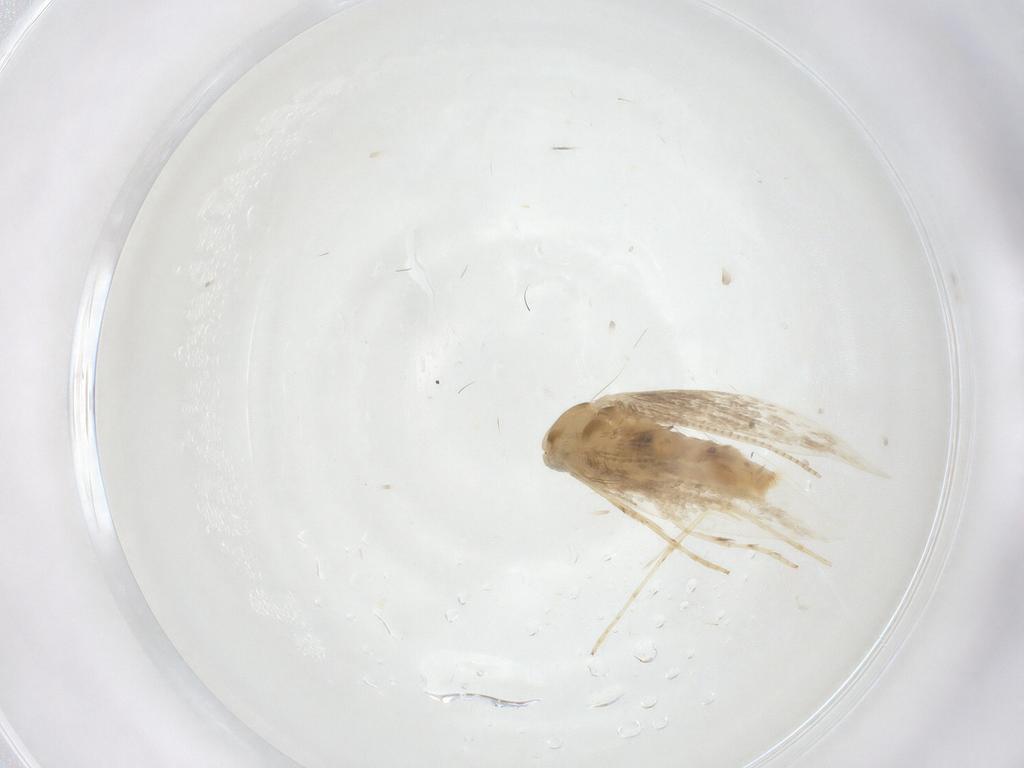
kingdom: Animalia
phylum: Arthropoda
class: Insecta
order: Lepidoptera
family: Gracillariidae
